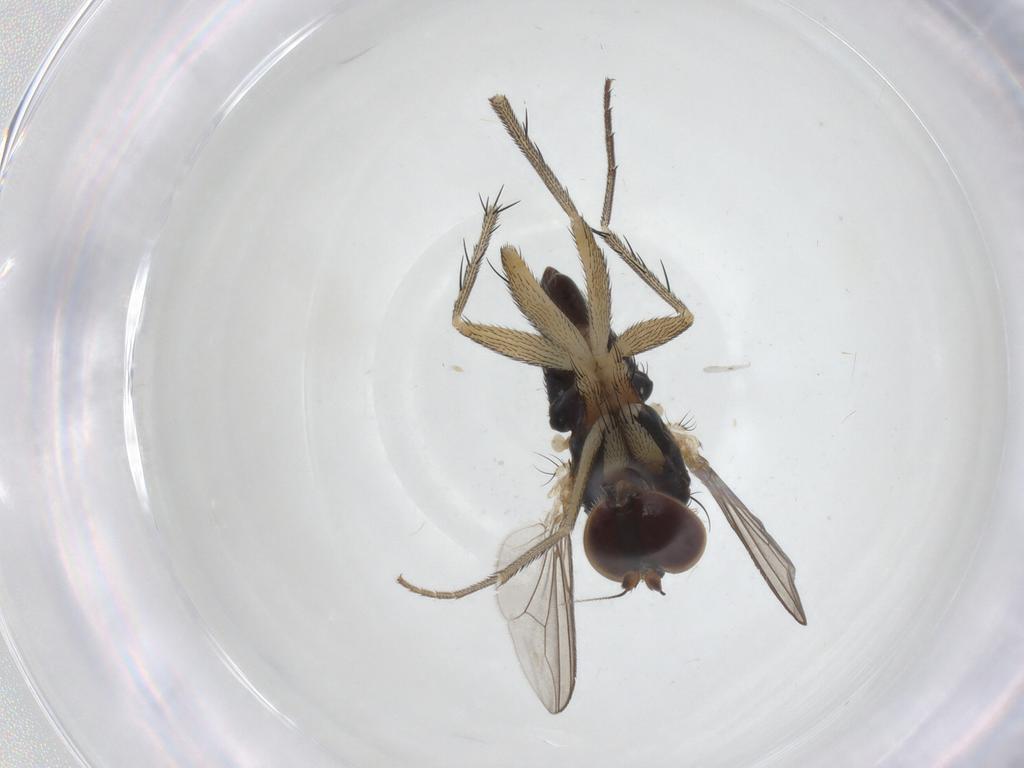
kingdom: Animalia
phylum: Arthropoda
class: Insecta
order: Diptera
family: Dolichopodidae
